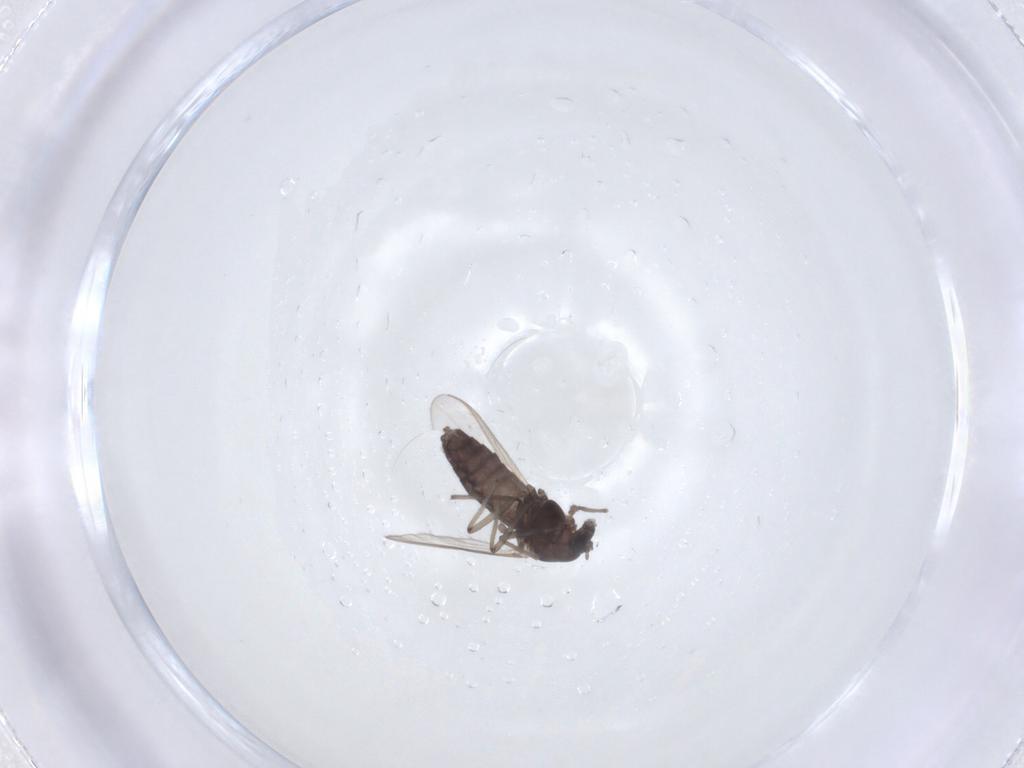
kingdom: Animalia
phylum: Arthropoda
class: Insecta
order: Diptera
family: Chironomidae
